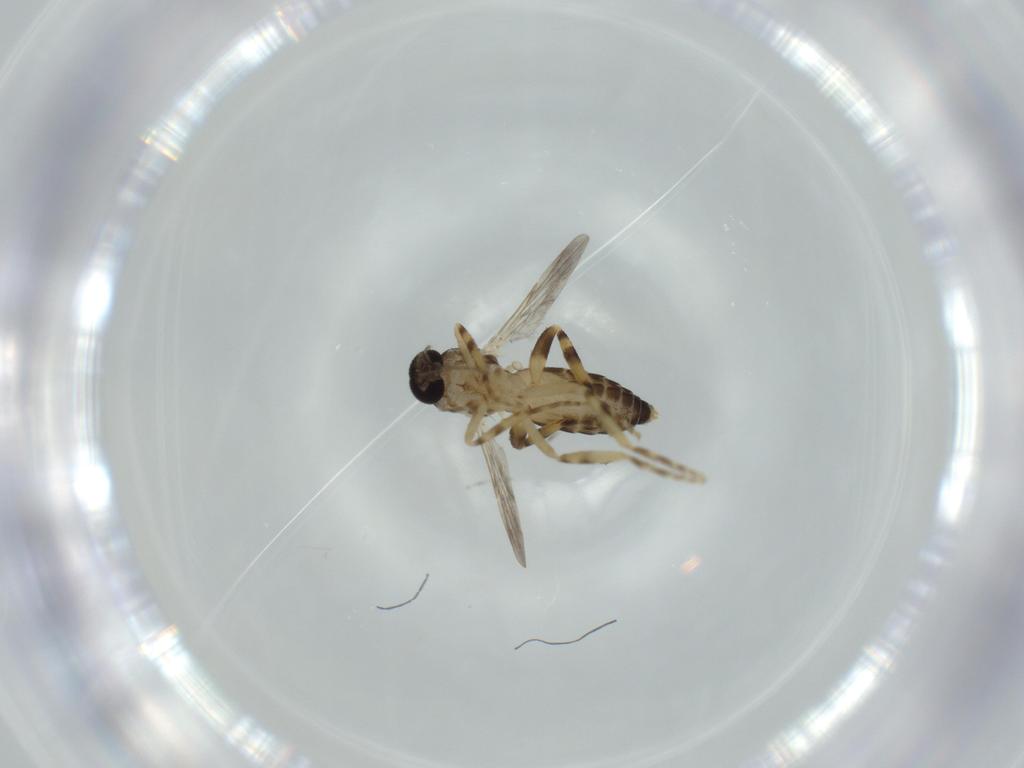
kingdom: Animalia
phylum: Arthropoda
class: Insecta
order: Diptera
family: Ceratopogonidae
